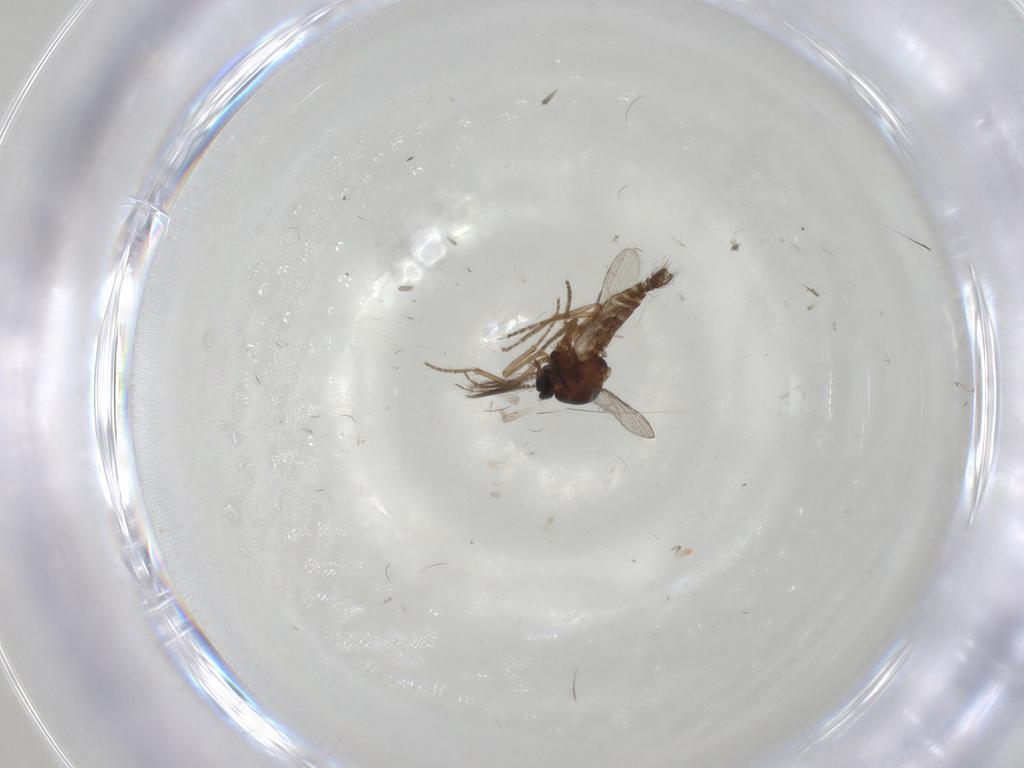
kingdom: Animalia
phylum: Arthropoda
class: Insecta
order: Diptera
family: Cecidomyiidae
